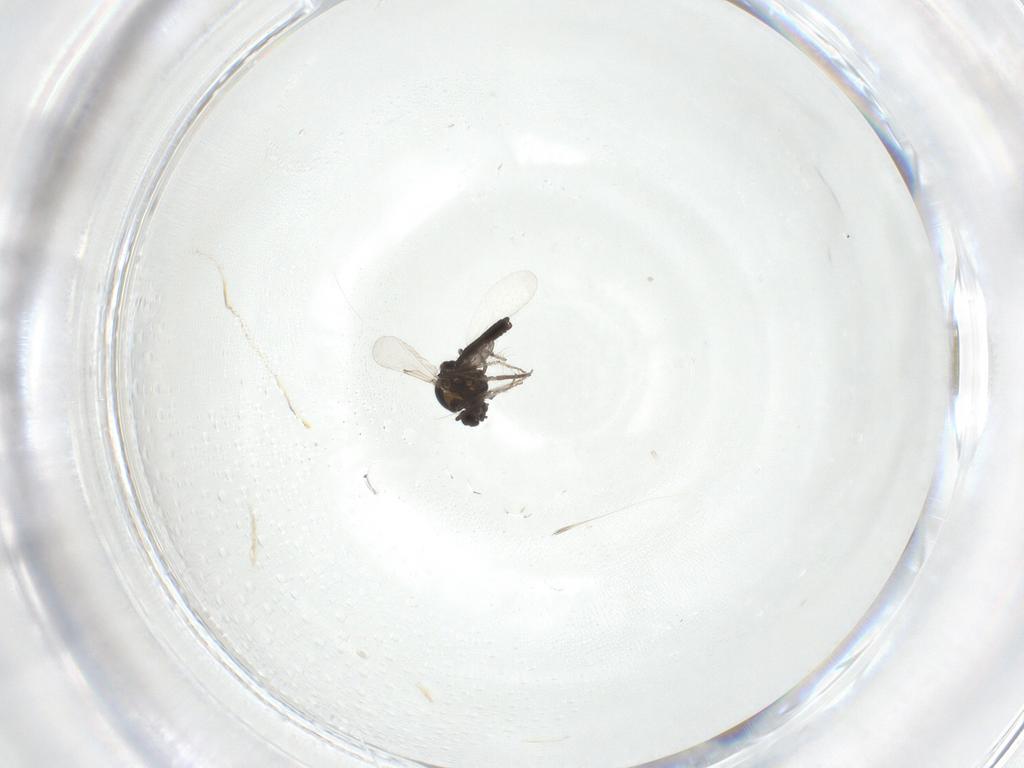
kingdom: Animalia
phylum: Arthropoda
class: Insecta
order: Diptera
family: Ceratopogonidae
